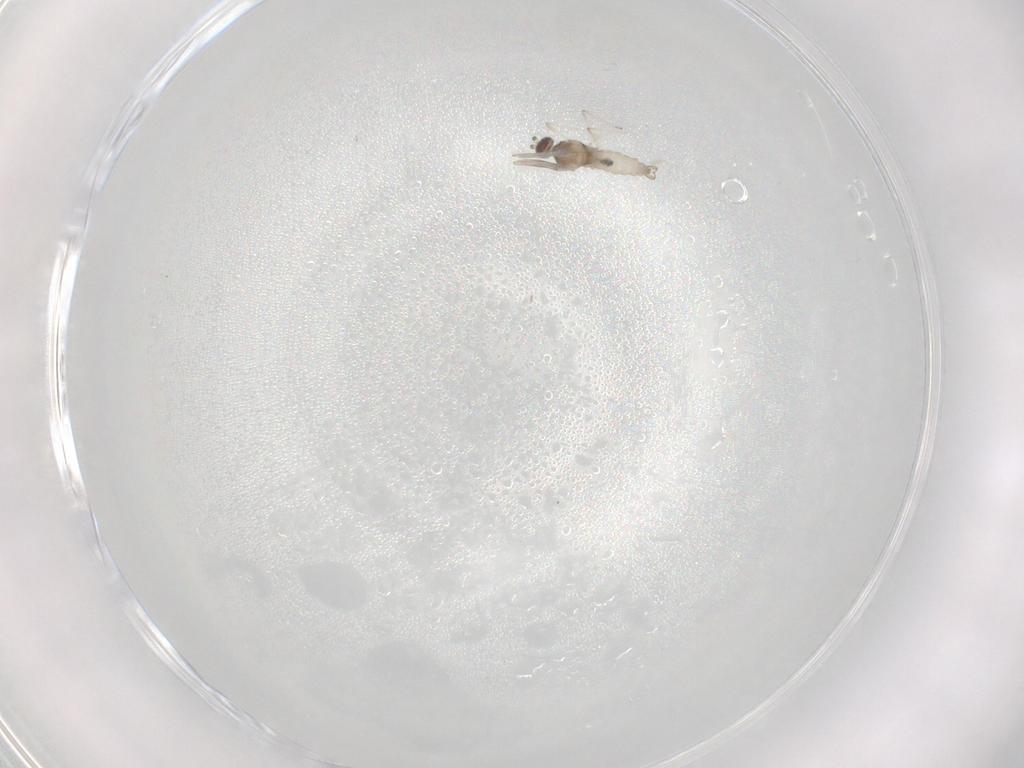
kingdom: Animalia
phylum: Arthropoda
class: Insecta
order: Diptera
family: Cecidomyiidae
